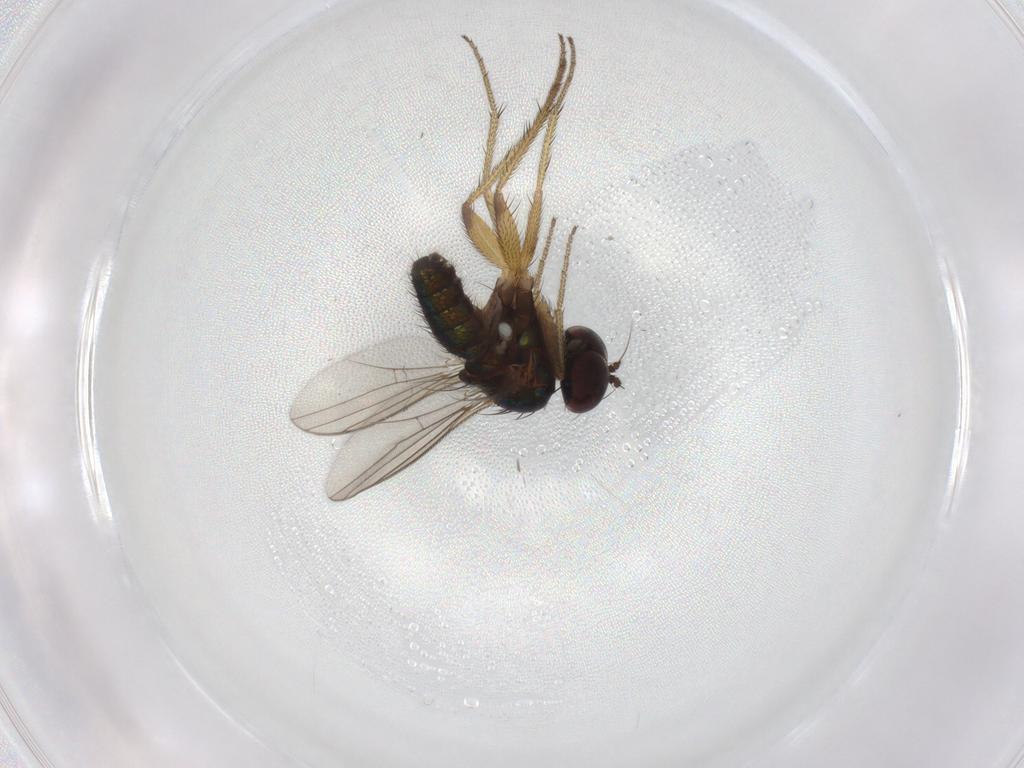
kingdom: Animalia
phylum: Arthropoda
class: Insecta
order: Diptera
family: Dolichopodidae
